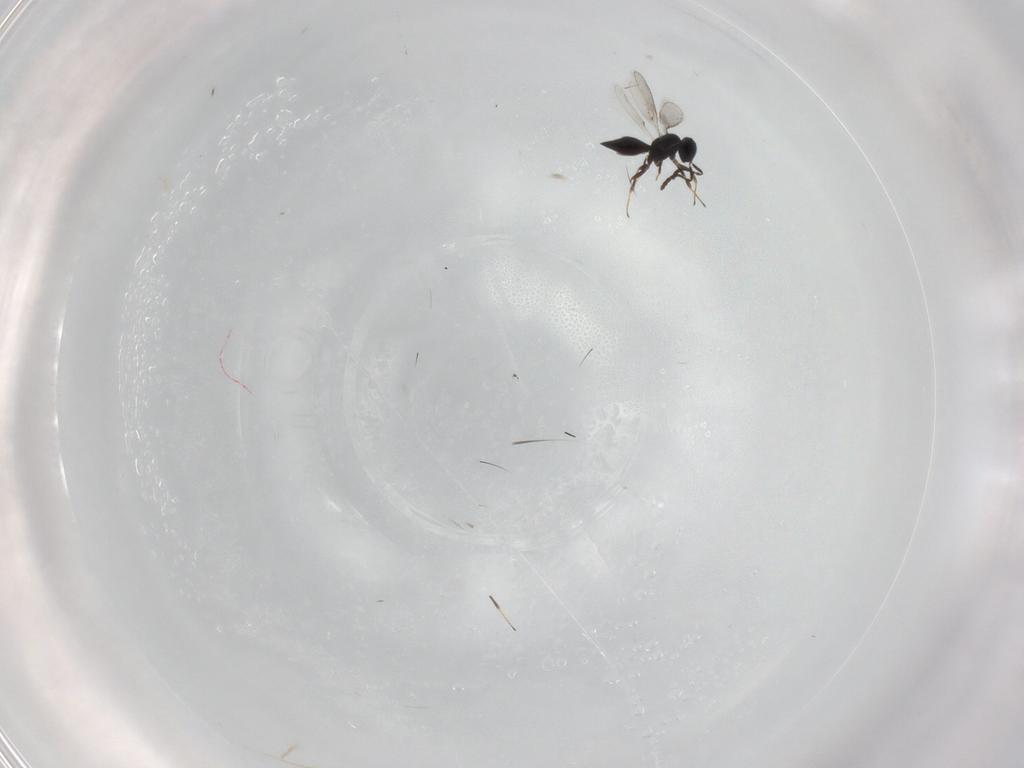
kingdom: Animalia
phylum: Arthropoda
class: Insecta
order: Hymenoptera
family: Scelionidae
